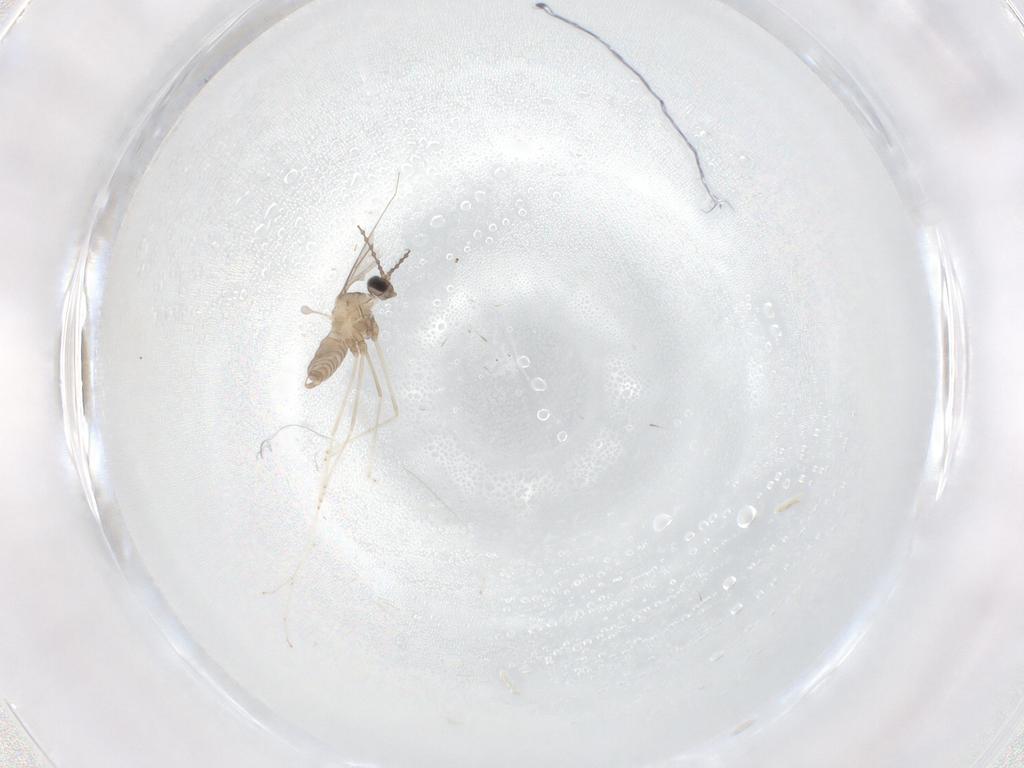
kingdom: Animalia
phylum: Arthropoda
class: Insecta
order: Diptera
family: Cecidomyiidae
